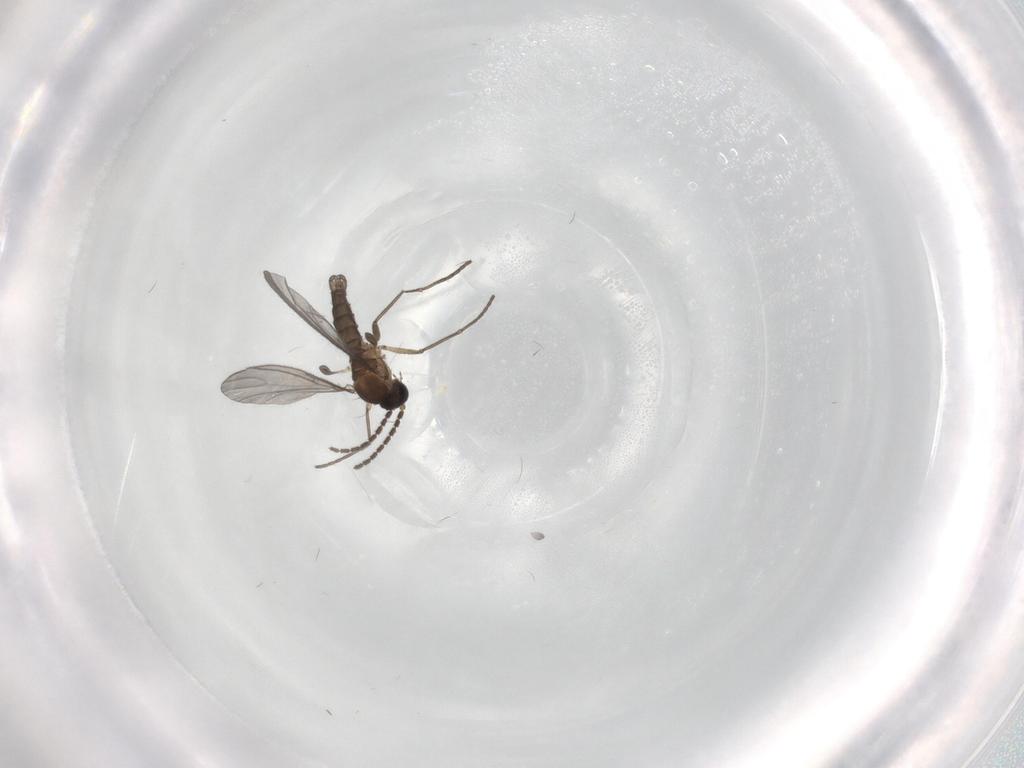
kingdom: Animalia
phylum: Arthropoda
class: Insecta
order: Diptera
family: Sciaridae
